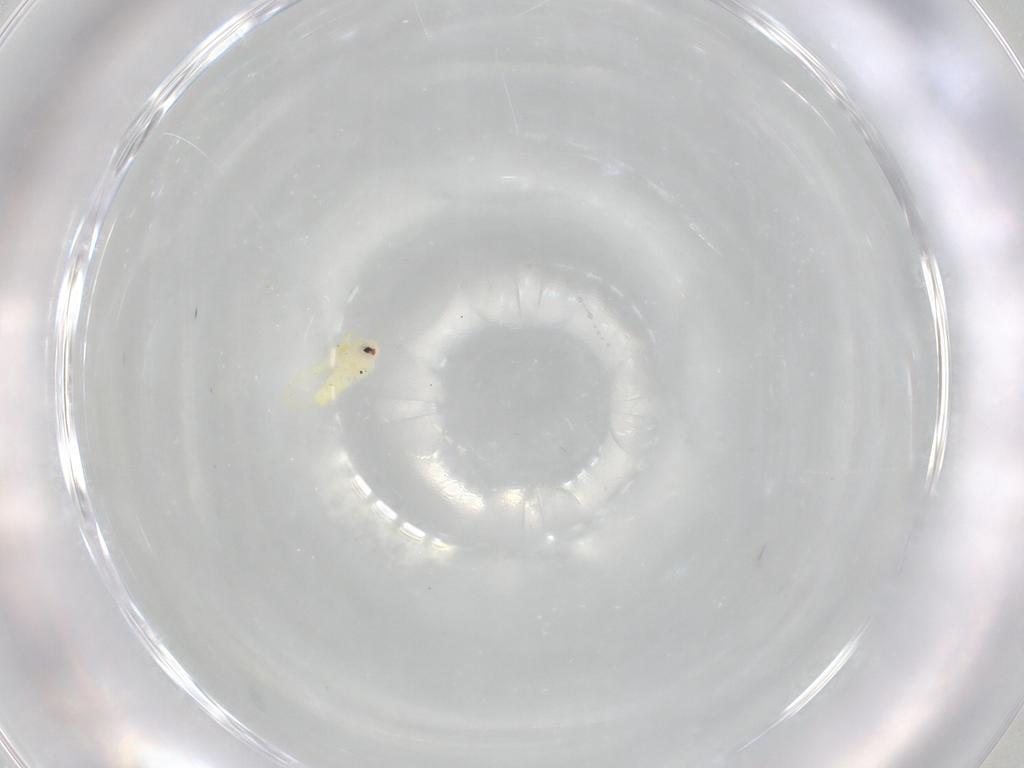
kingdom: Animalia
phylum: Arthropoda
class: Insecta
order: Hemiptera
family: Aleyrodidae
